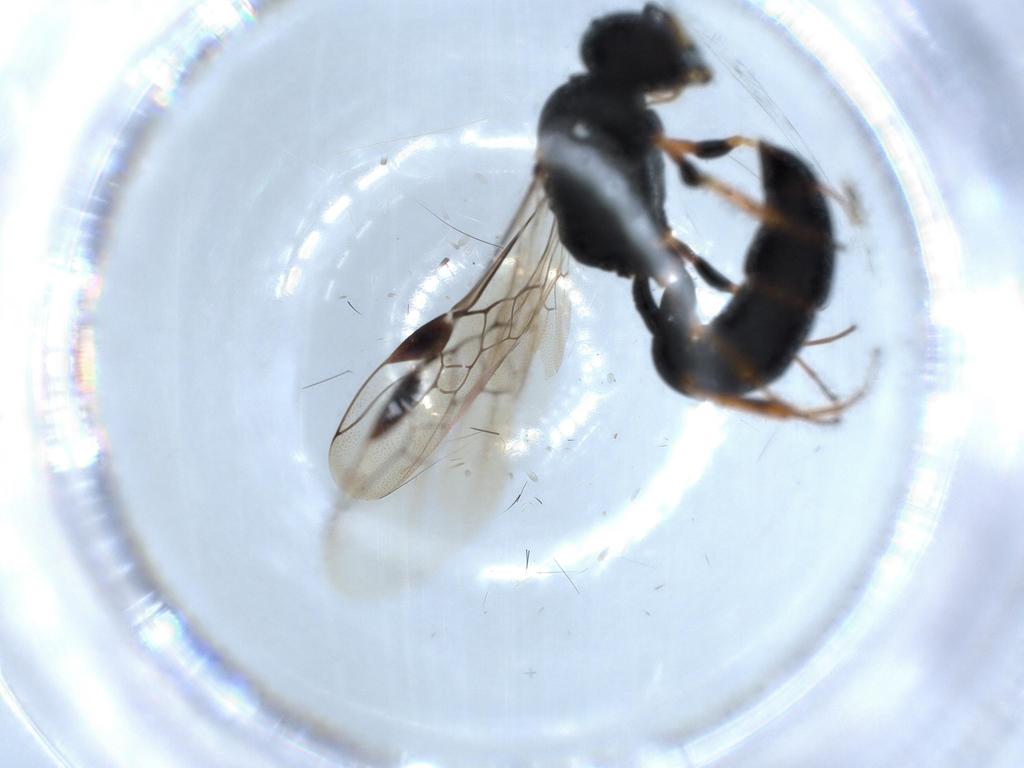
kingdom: Animalia
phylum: Arthropoda
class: Insecta
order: Hymenoptera
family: Crabronidae
